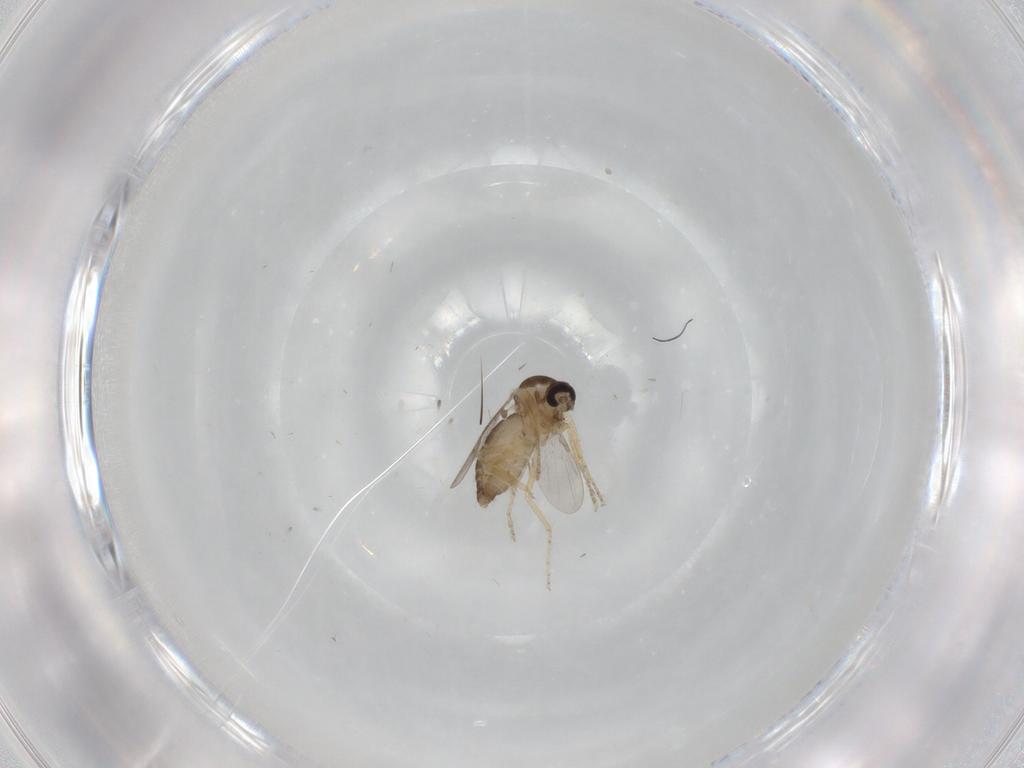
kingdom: Animalia
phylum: Arthropoda
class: Insecta
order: Diptera
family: Ceratopogonidae
